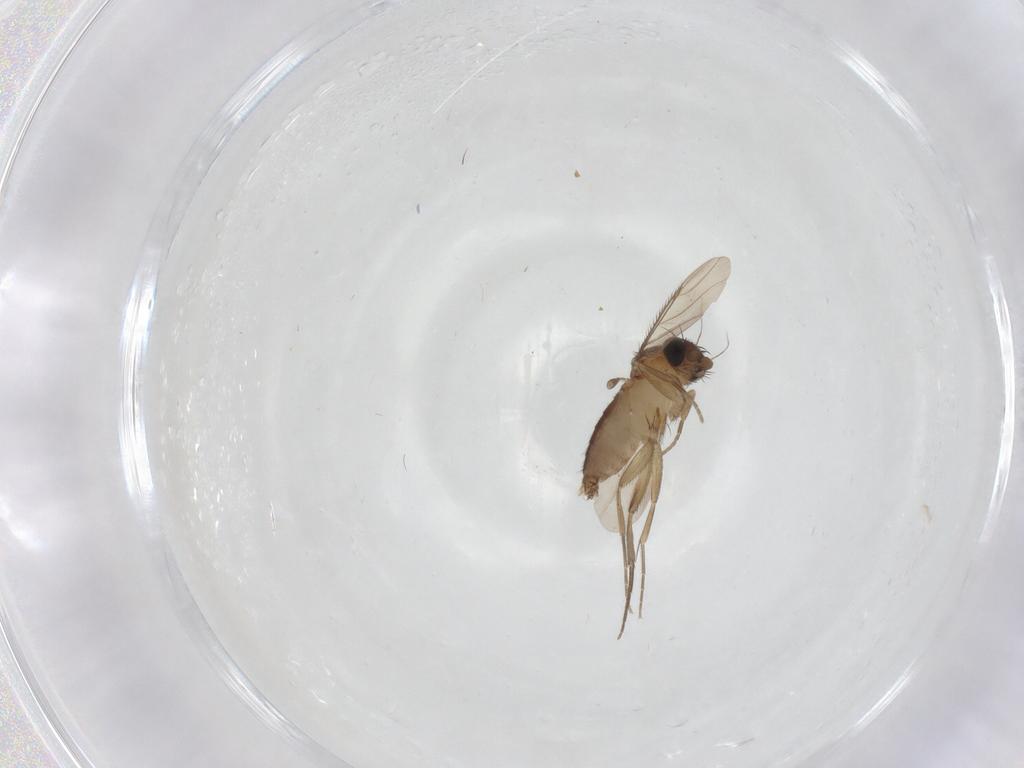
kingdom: Animalia
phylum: Arthropoda
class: Insecta
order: Diptera
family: Phoridae
